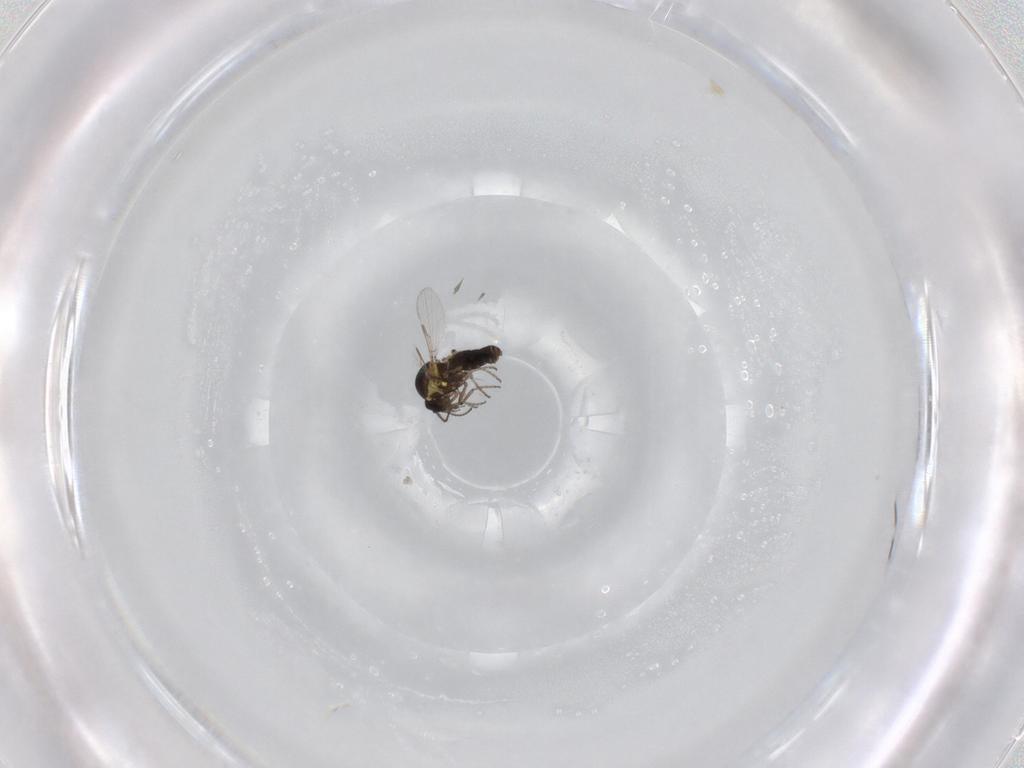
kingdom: Animalia
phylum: Arthropoda
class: Insecta
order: Diptera
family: Ceratopogonidae
